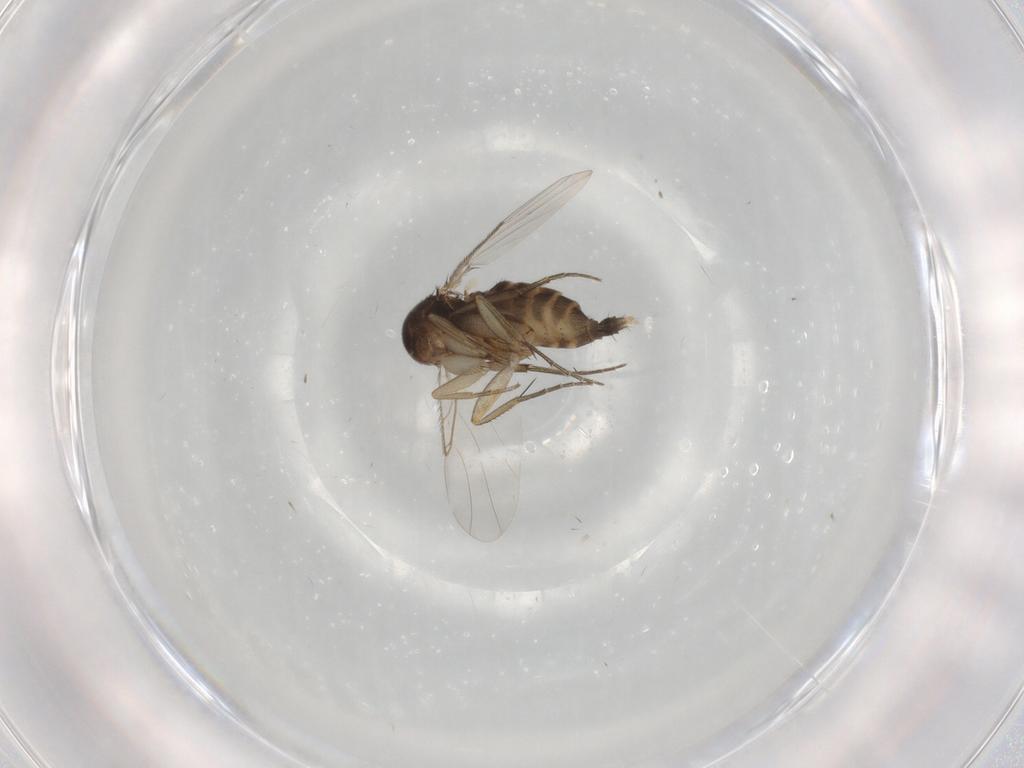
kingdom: Animalia
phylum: Arthropoda
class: Insecta
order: Diptera
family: Phoridae
